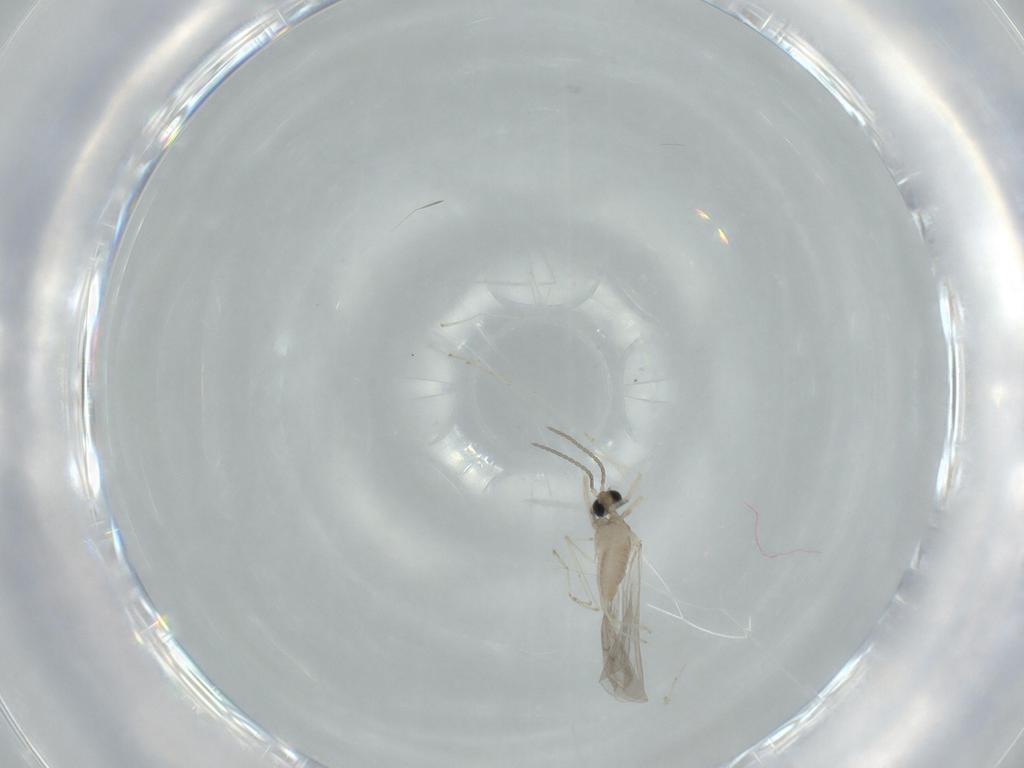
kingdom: Animalia
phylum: Arthropoda
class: Insecta
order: Diptera
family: Cecidomyiidae
